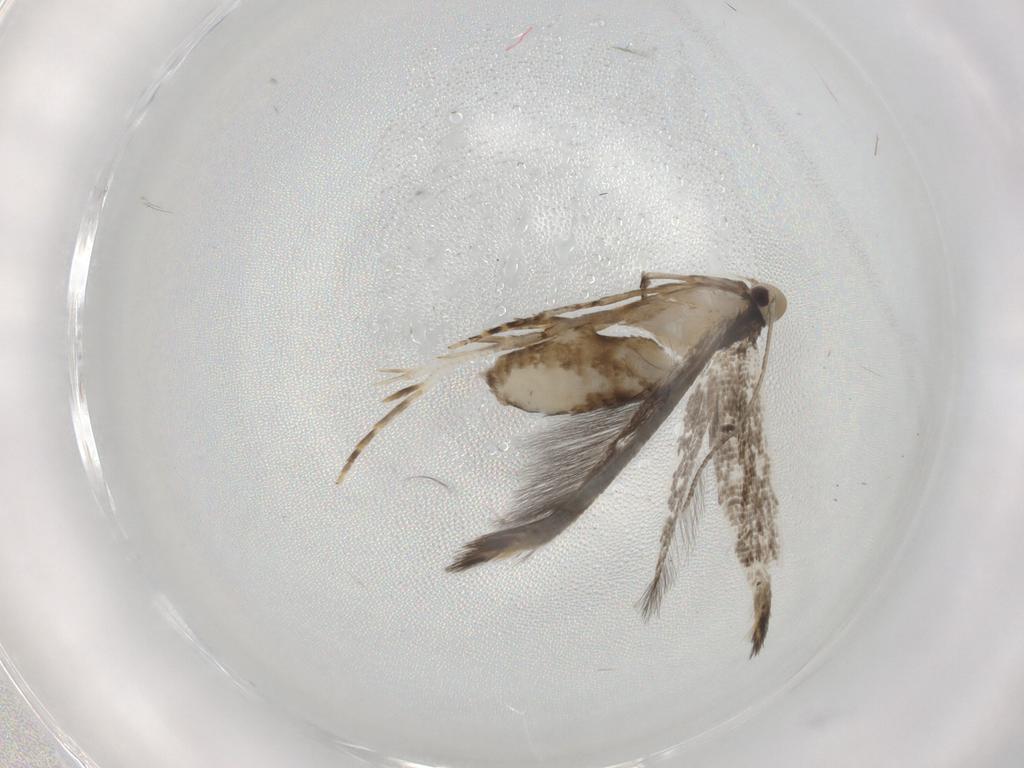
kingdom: Animalia
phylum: Arthropoda
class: Insecta
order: Lepidoptera
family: Cosmopterigidae
